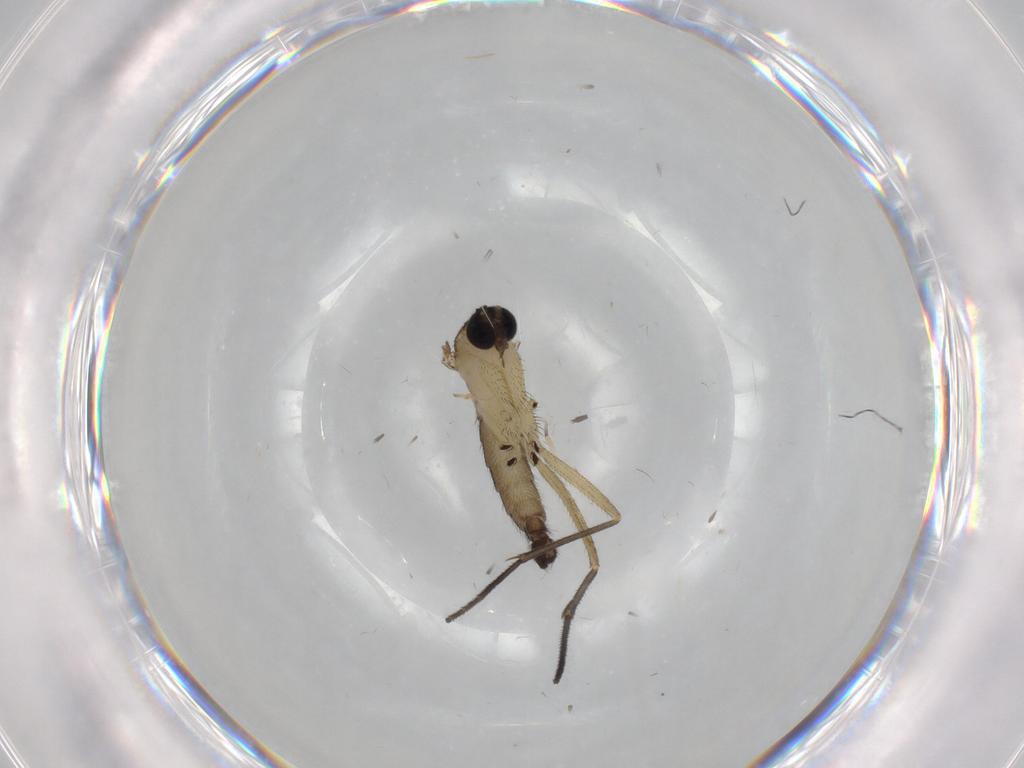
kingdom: Animalia
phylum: Arthropoda
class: Insecta
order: Diptera
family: Sciaridae
